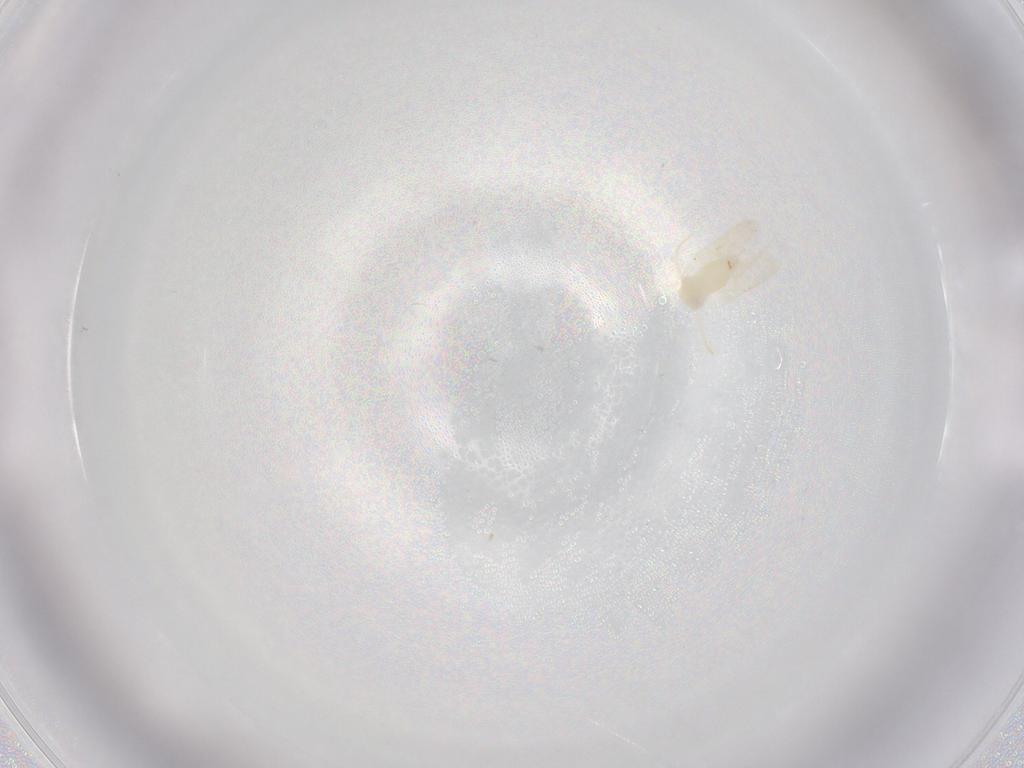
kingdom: Animalia
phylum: Arthropoda
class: Insecta
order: Hemiptera
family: Aleyrodidae
